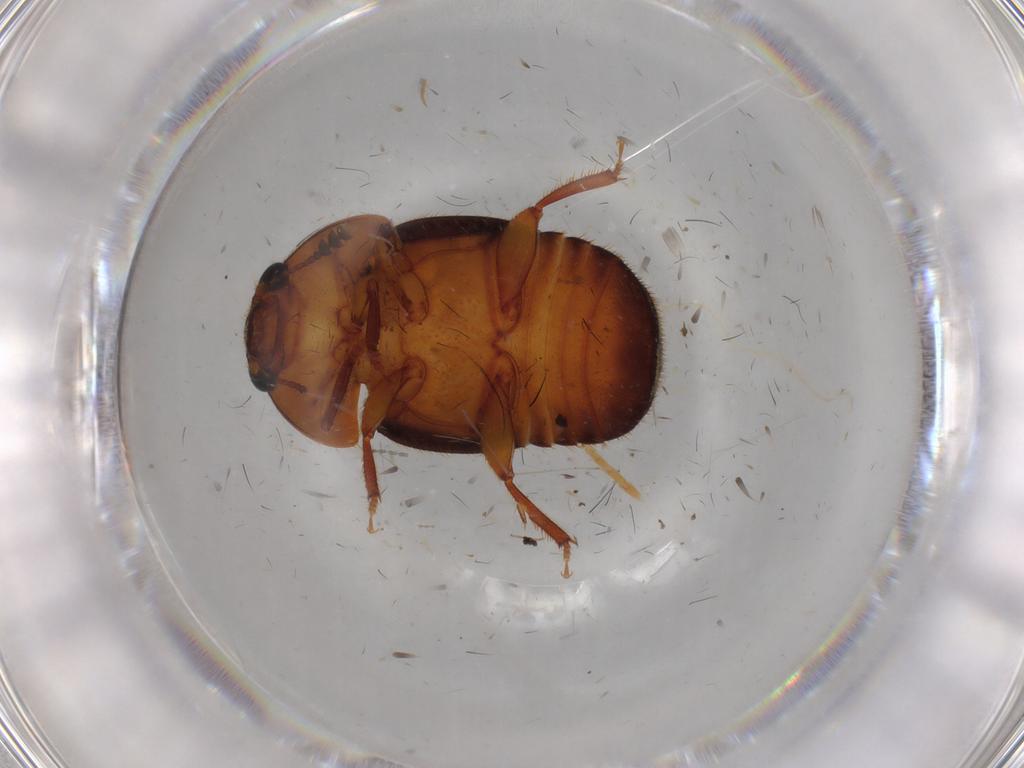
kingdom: Animalia
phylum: Arthropoda
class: Insecta
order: Coleoptera
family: Nitidulidae
